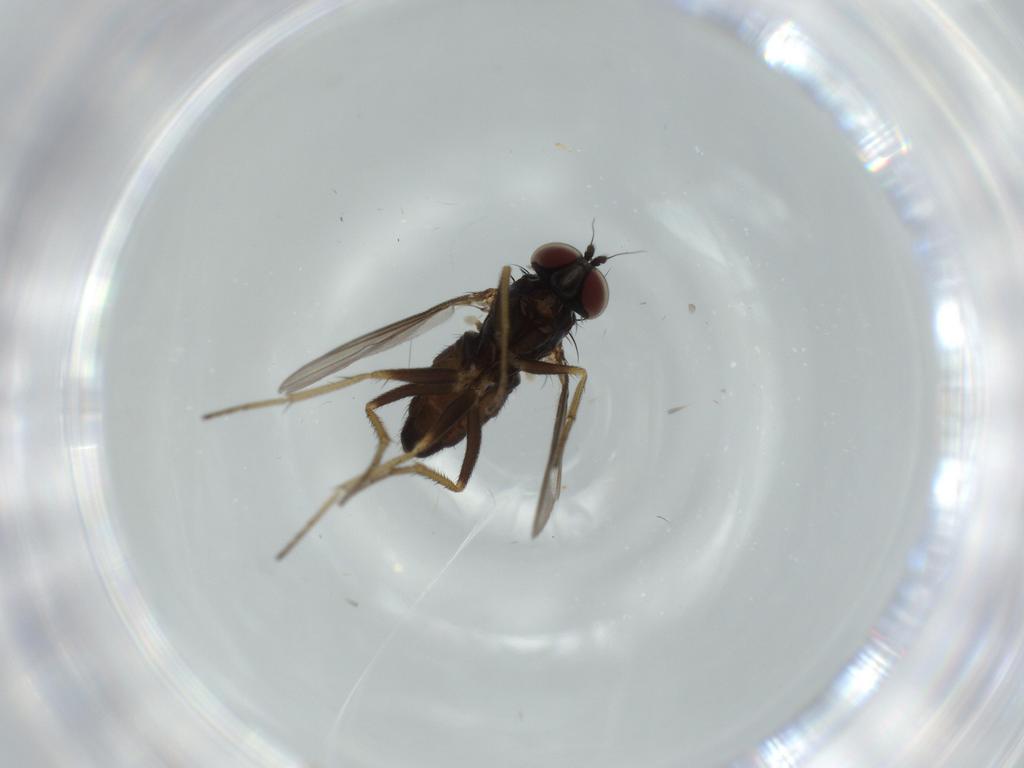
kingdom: Animalia
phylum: Arthropoda
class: Insecta
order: Diptera
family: Dolichopodidae
